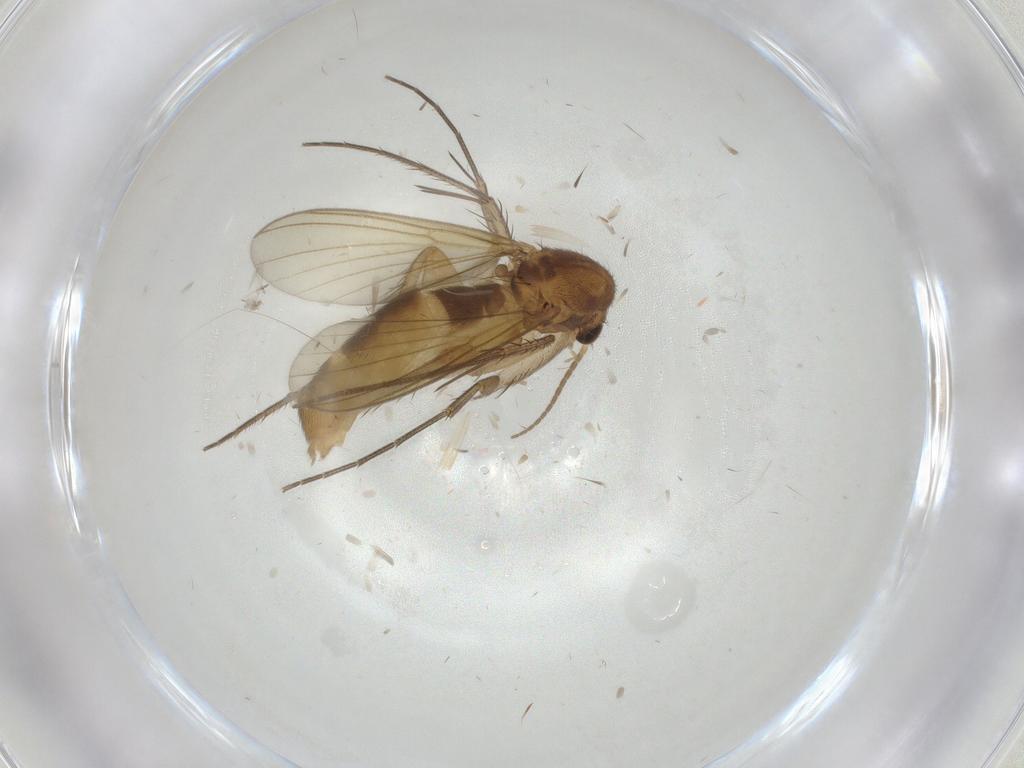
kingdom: Animalia
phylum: Arthropoda
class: Insecta
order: Diptera
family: Mycetophilidae
